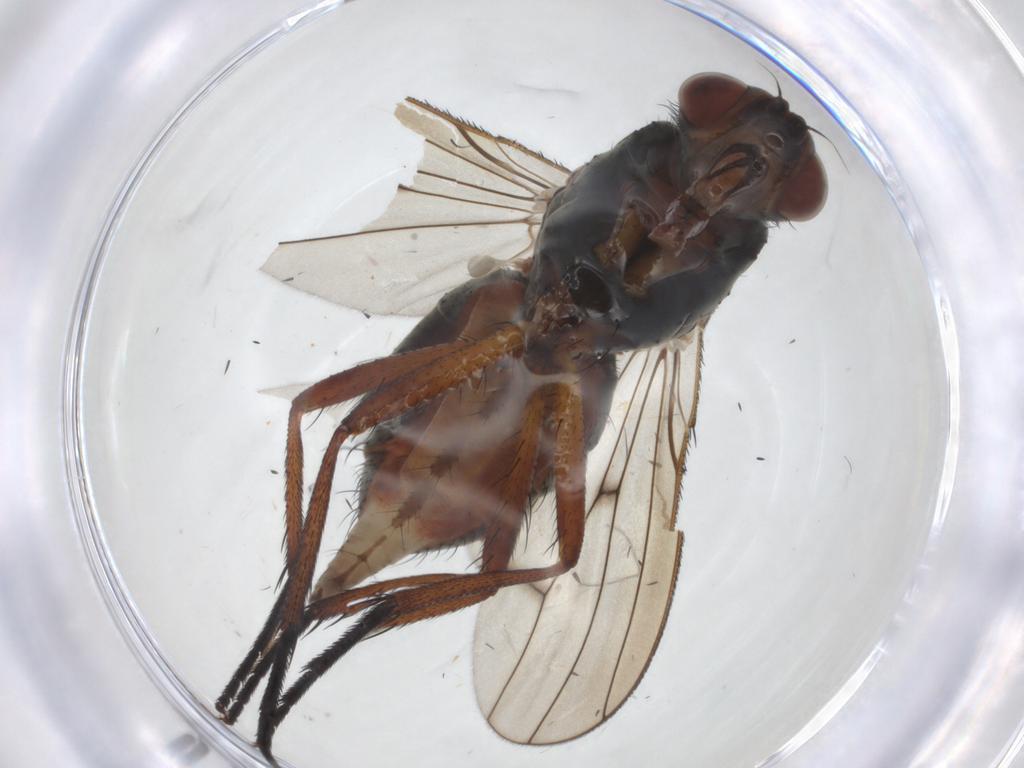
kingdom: Animalia
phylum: Arthropoda
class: Insecta
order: Diptera
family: Anthomyiidae
